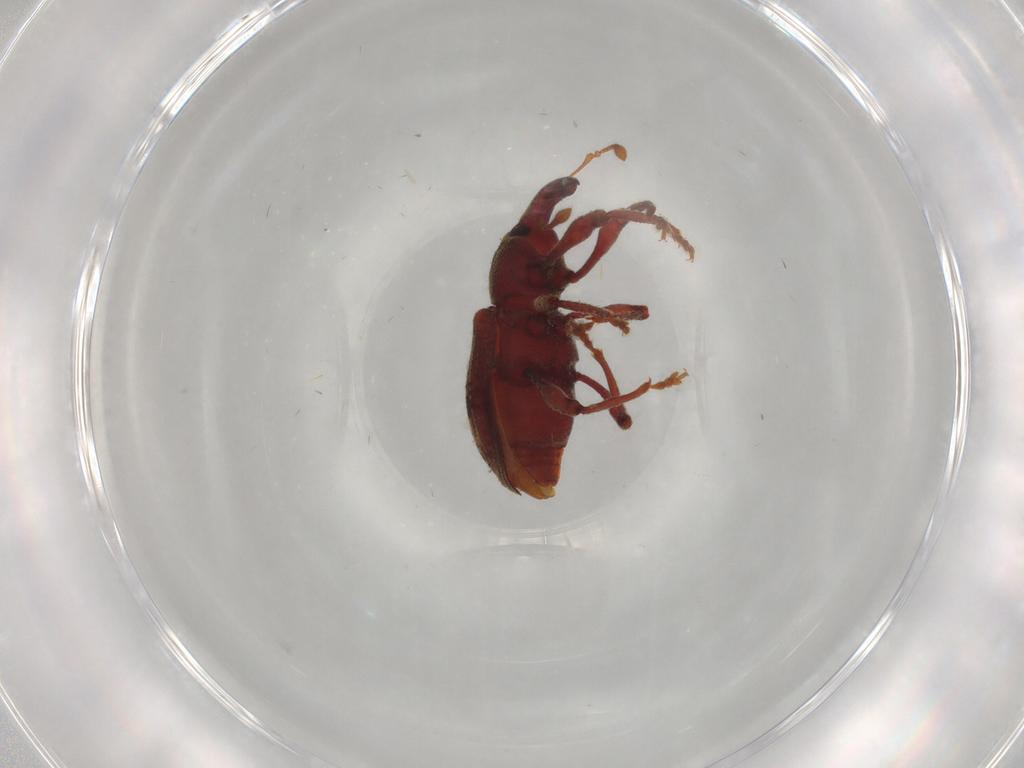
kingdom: Animalia
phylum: Arthropoda
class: Insecta
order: Coleoptera
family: Curculionidae
